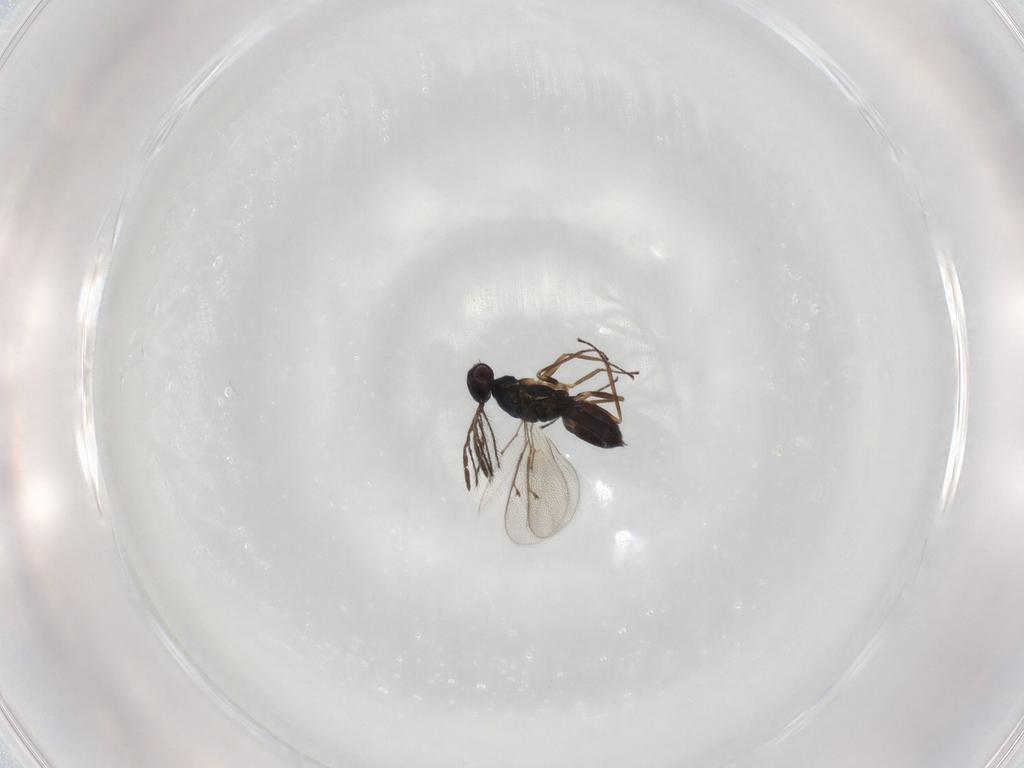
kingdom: Animalia
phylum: Arthropoda
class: Insecta
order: Hymenoptera
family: Eulophidae
